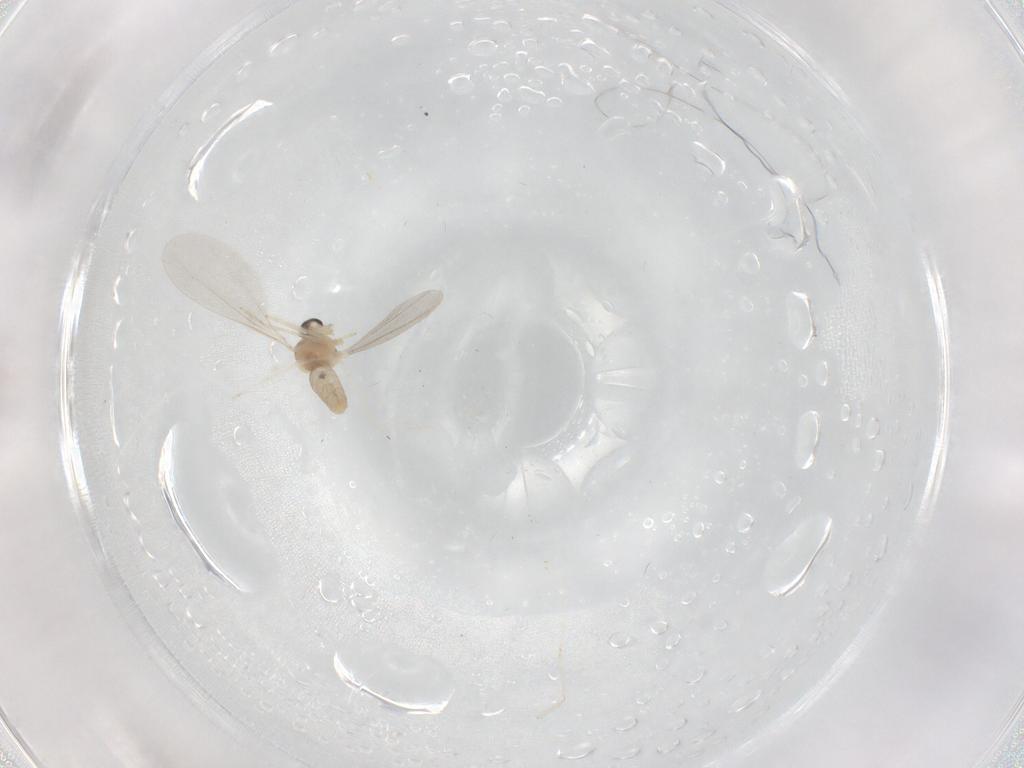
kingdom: Animalia
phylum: Arthropoda
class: Insecta
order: Diptera
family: Cecidomyiidae
